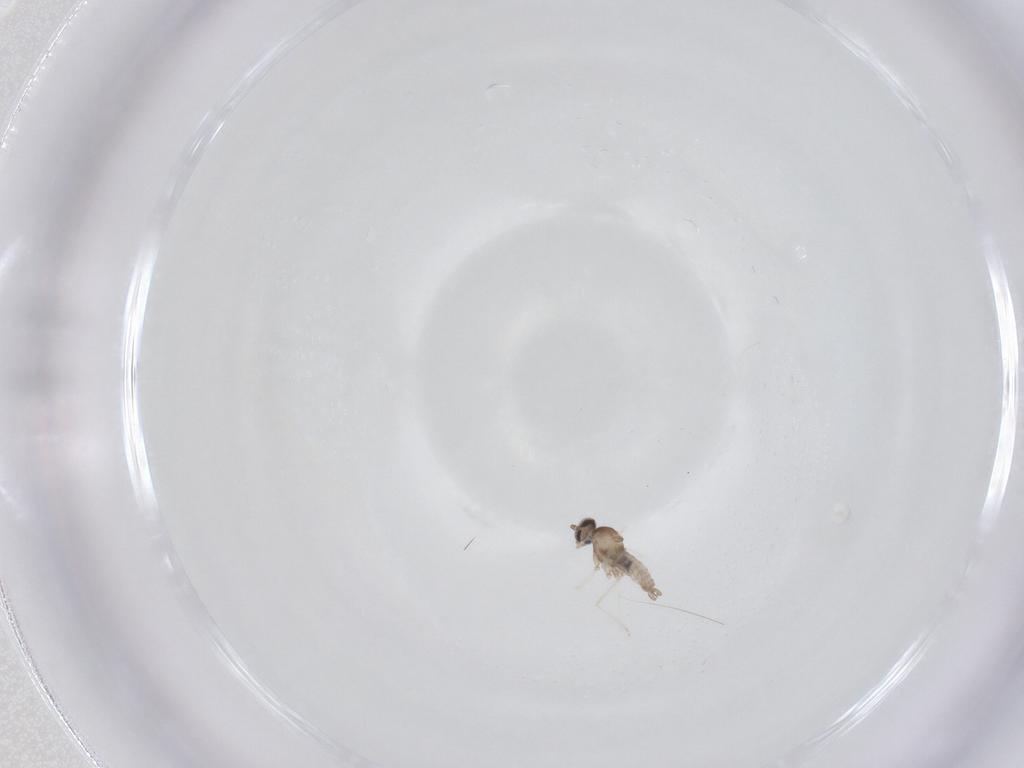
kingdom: Animalia
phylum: Arthropoda
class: Insecta
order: Diptera
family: Cecidomyiidae
